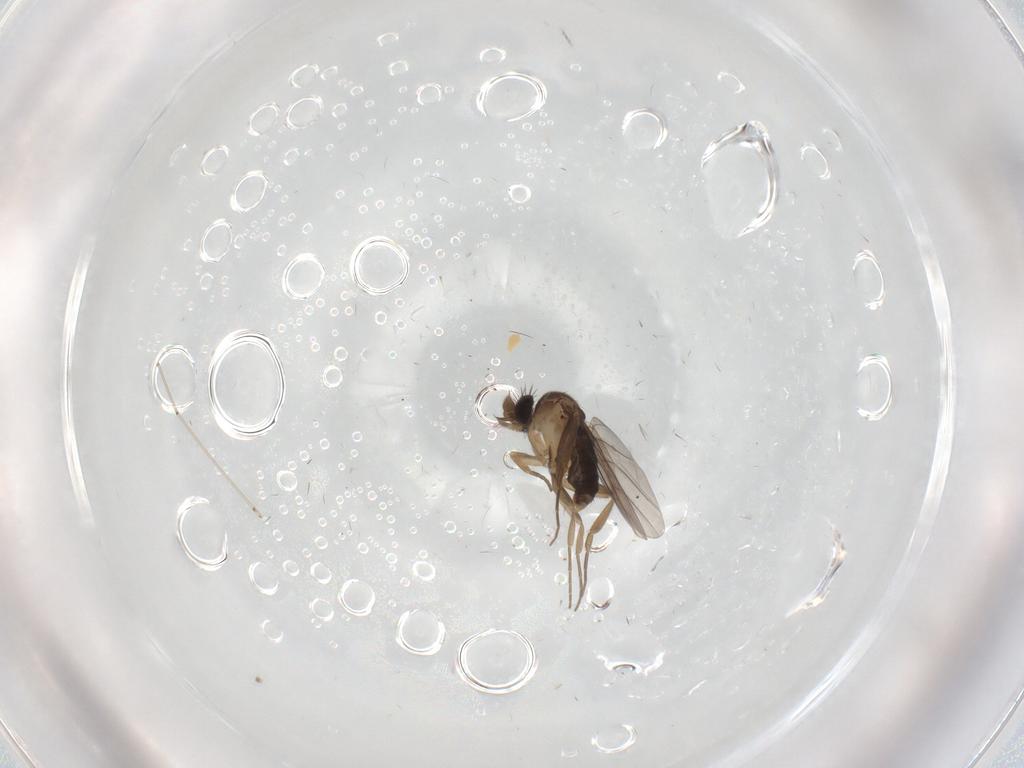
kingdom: Animalia
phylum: Arthropoda
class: Insecta
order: Diptera
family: Phoridae
